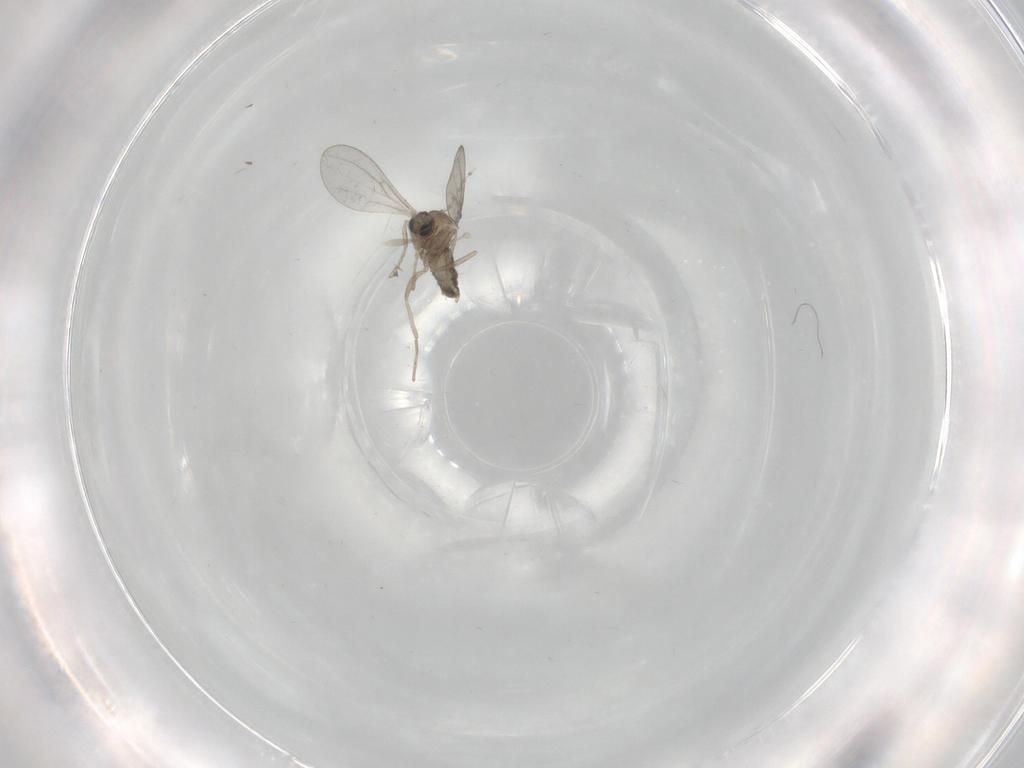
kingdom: Animalia
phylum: Arthropoda
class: Insecta
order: Diptera
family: Cecidomyiidae
